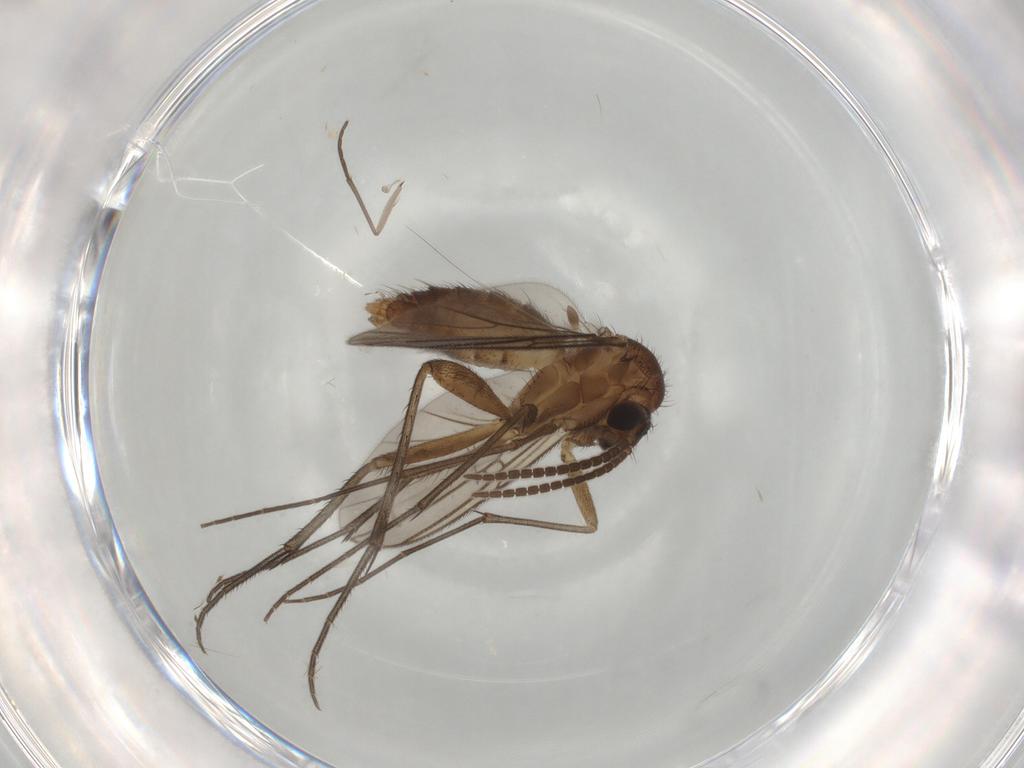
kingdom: Animalia
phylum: Arthropoda
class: Insecta
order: Diptera
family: Mycetophilidae
